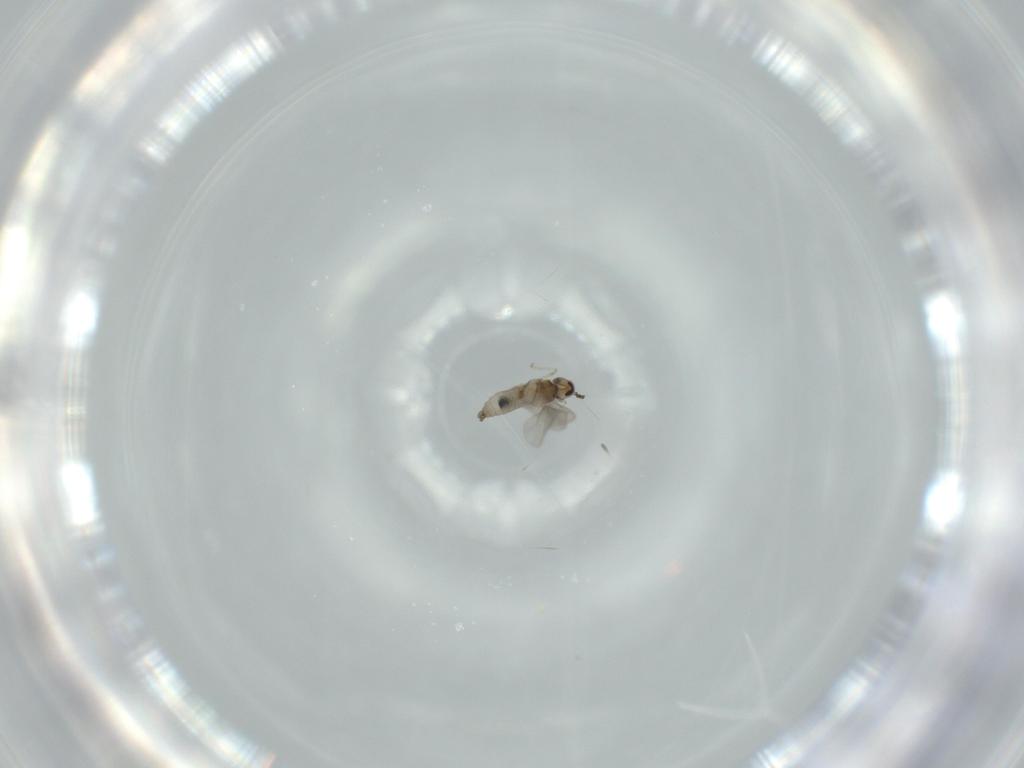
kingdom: Animalia
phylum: Arthropoda
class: Insecta
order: Diptera
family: Cecidomyiidae
